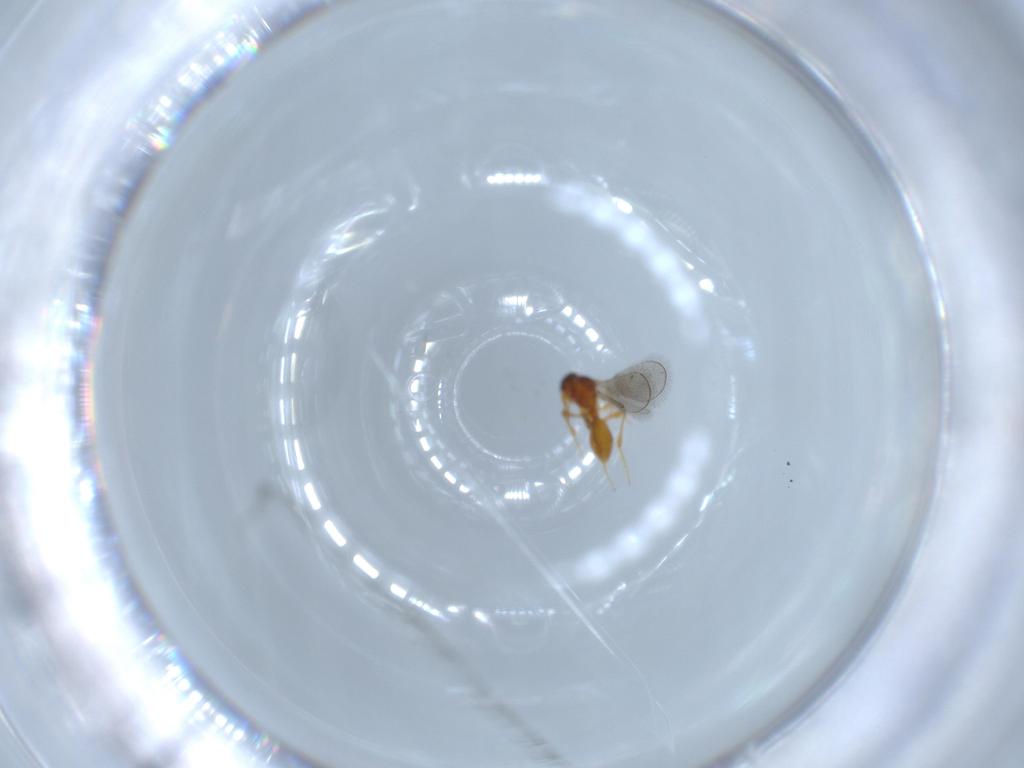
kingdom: Animalia
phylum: Arthropoda
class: Insecta
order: Hymenoptera
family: Platygastridae
